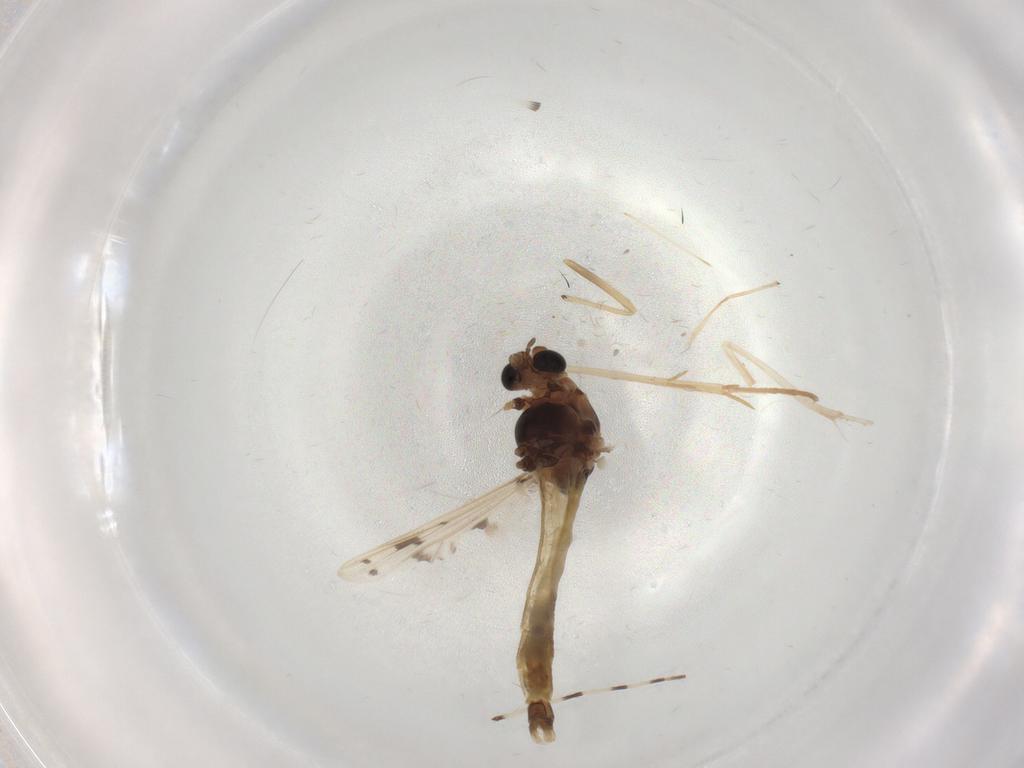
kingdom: Animalia
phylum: Arthropoda
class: Insecta
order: Diptera
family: Chironomidae
